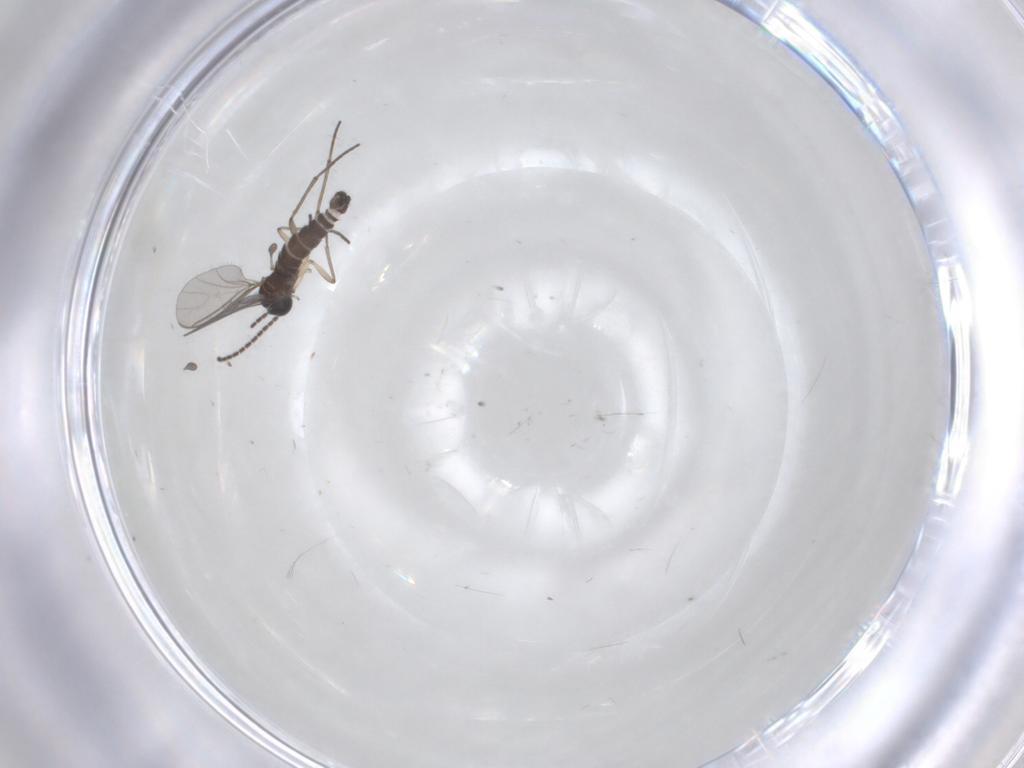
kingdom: Animalia
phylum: Arthropoda
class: Insecta
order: Diptera
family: Sciaridae
